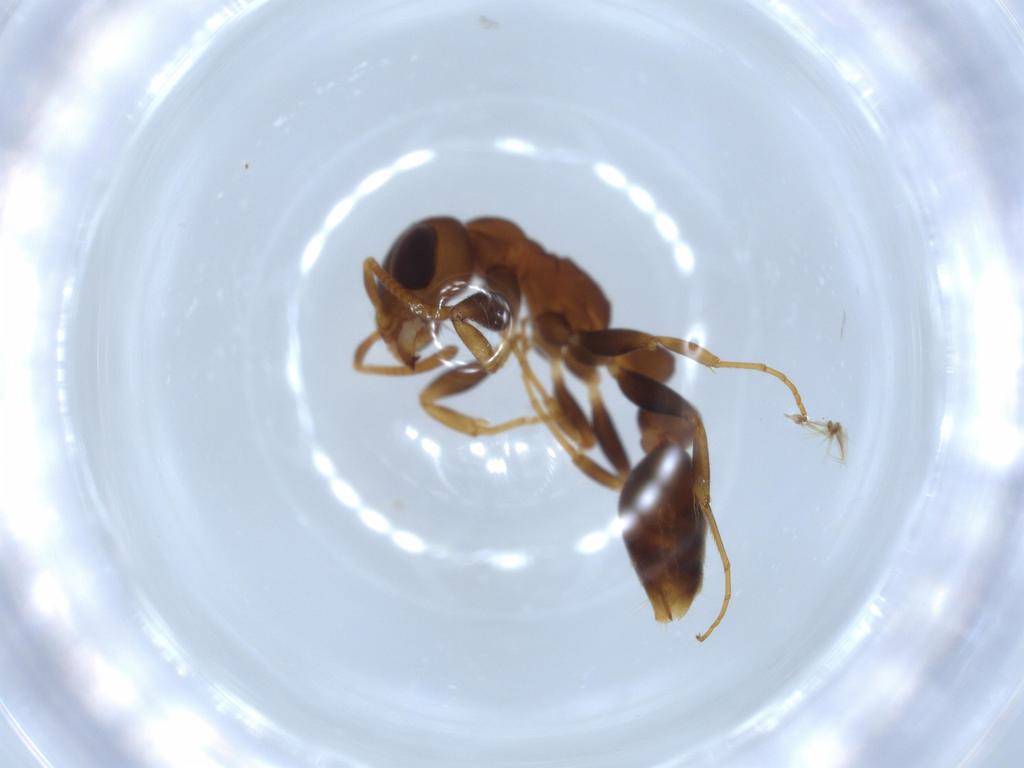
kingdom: Animalia
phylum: Arthropoda
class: Insecta
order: Hymenoptera
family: Formicidae
